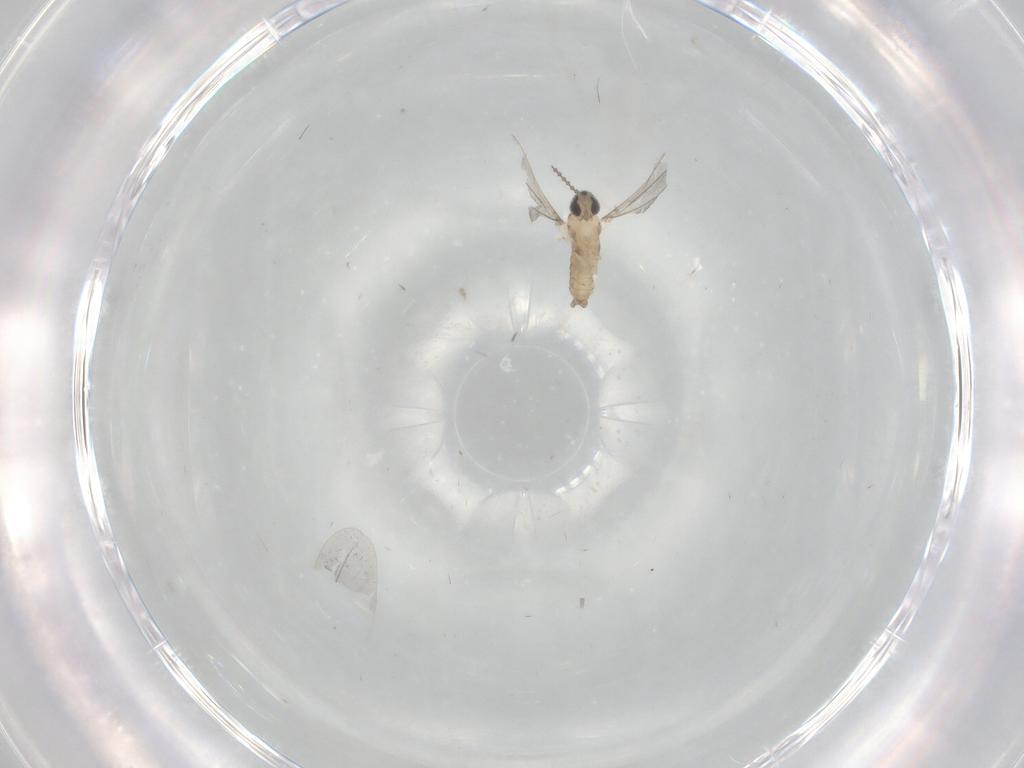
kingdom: Animalia
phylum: Arthropoda
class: Insecta
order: Diptera
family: Cecidomyiidae
